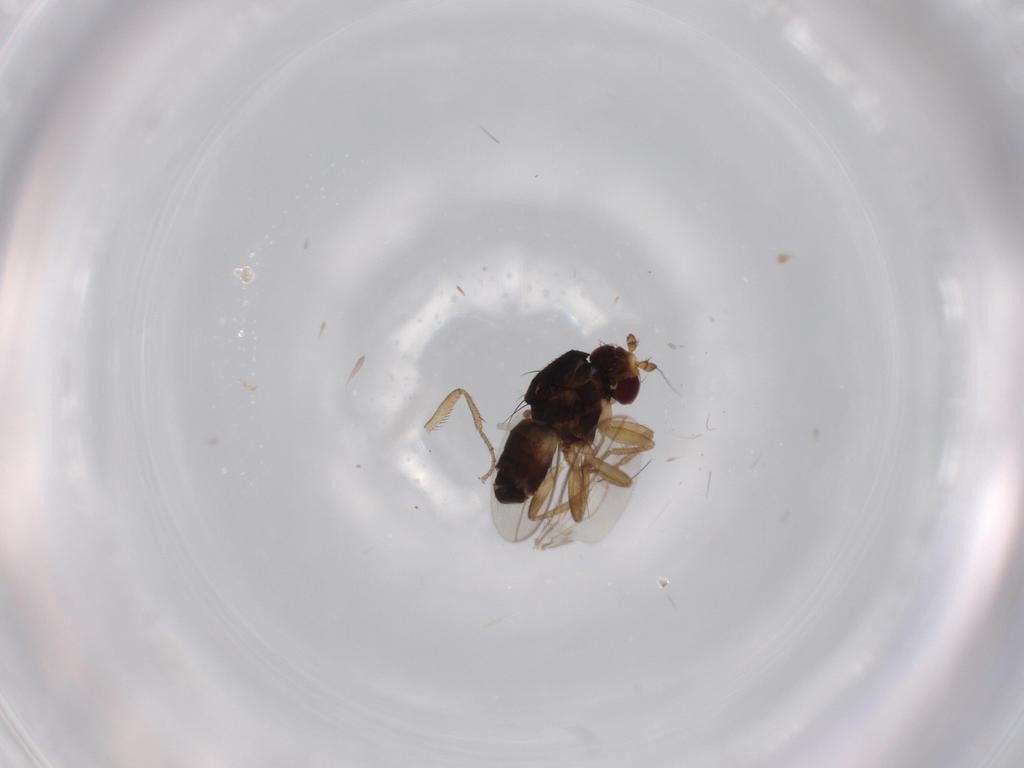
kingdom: Animalia
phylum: Arthropoda
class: Insecta
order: Diptera
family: Sphaeroceridae
